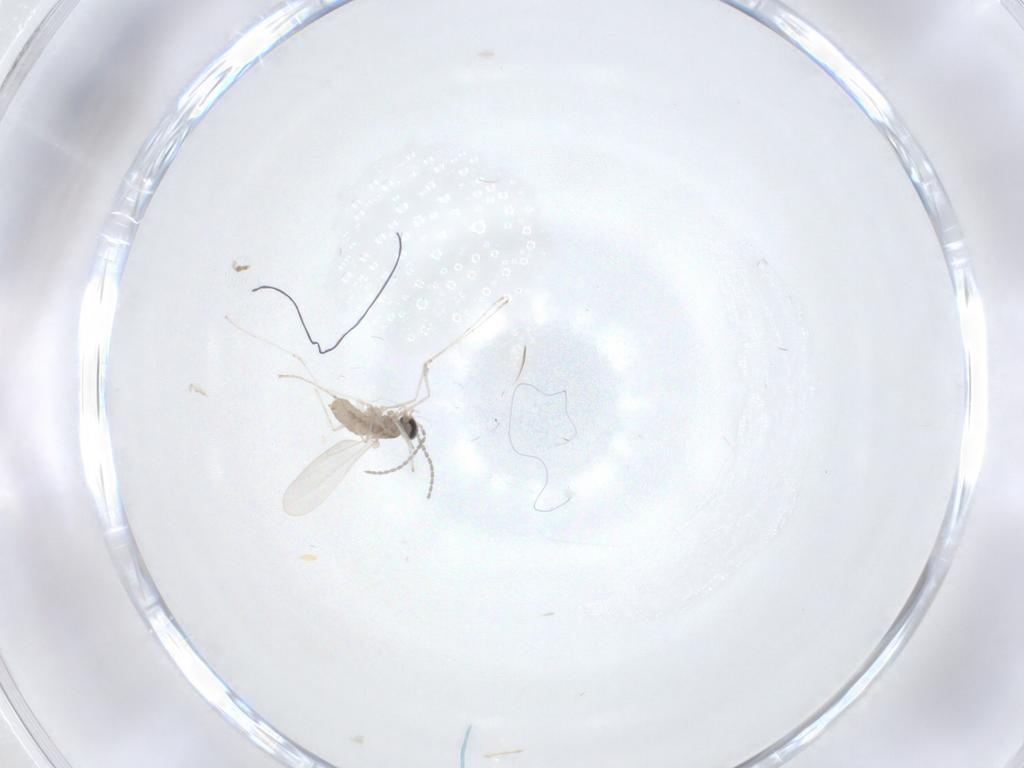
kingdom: Animalia
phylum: Arthropoda
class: Insecta
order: Diptera
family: Cecidomyiidae
